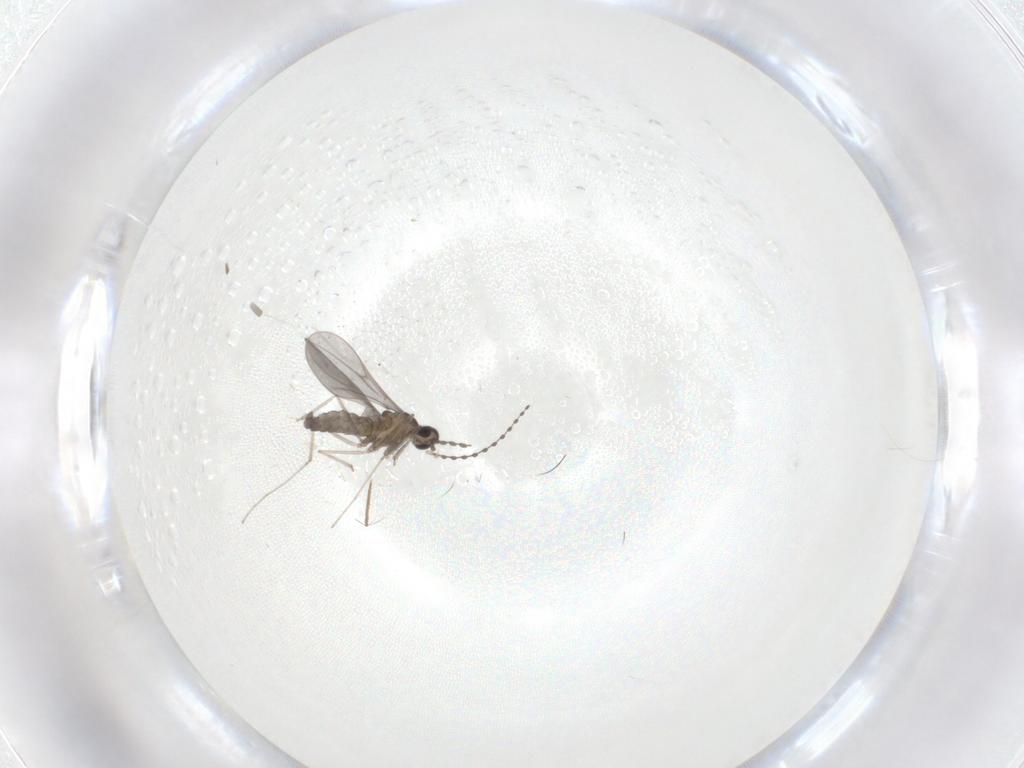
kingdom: Animalia
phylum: Arthropoda
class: Insecta
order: Diptera
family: Cecidomyiidae
